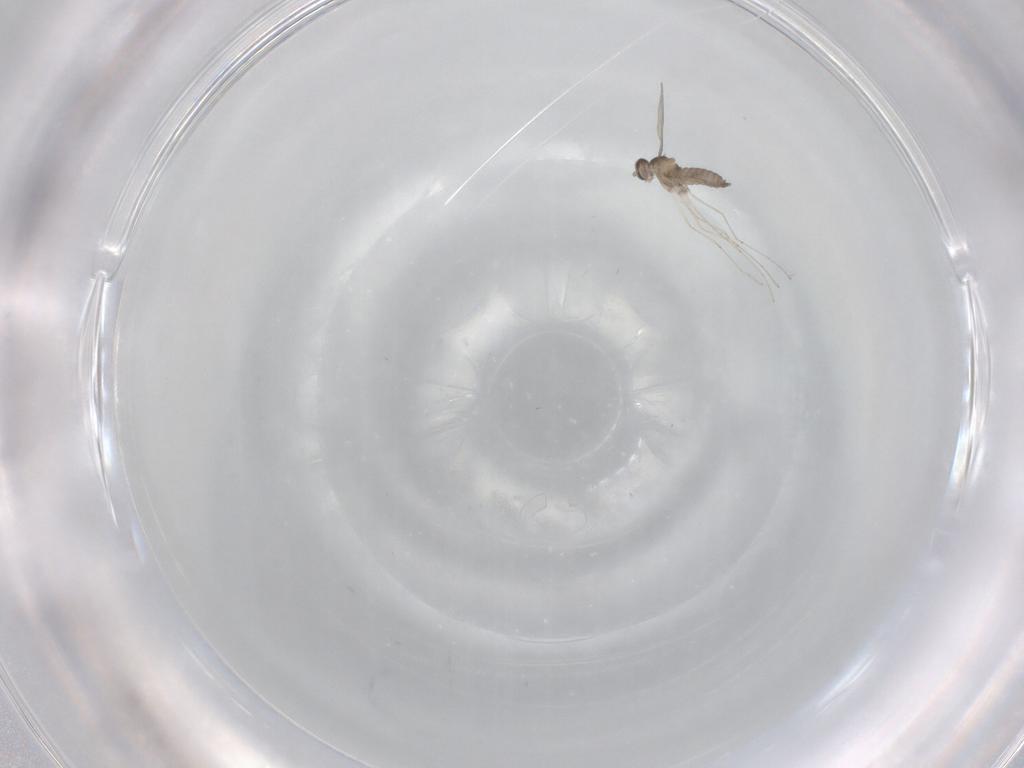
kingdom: Animalia
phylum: Arthropoda
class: Insecta
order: Diptera
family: Cecidomyiidae
